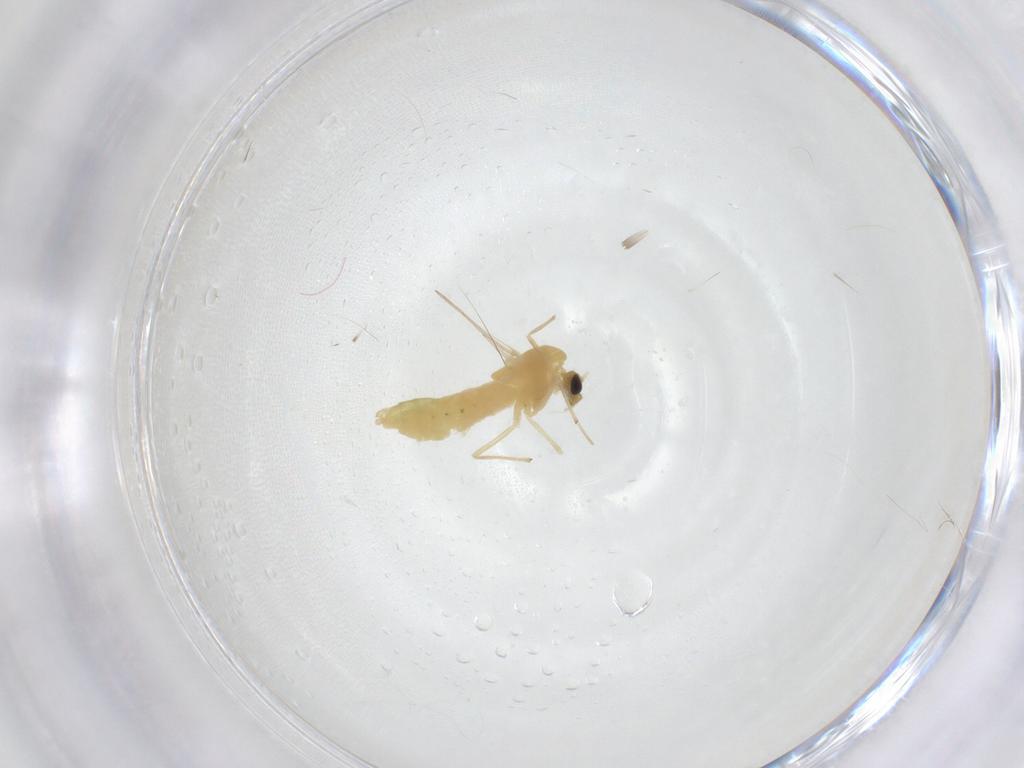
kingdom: Animalia
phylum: Arthropoda
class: Insecta
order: Diptera
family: Chironomidae
